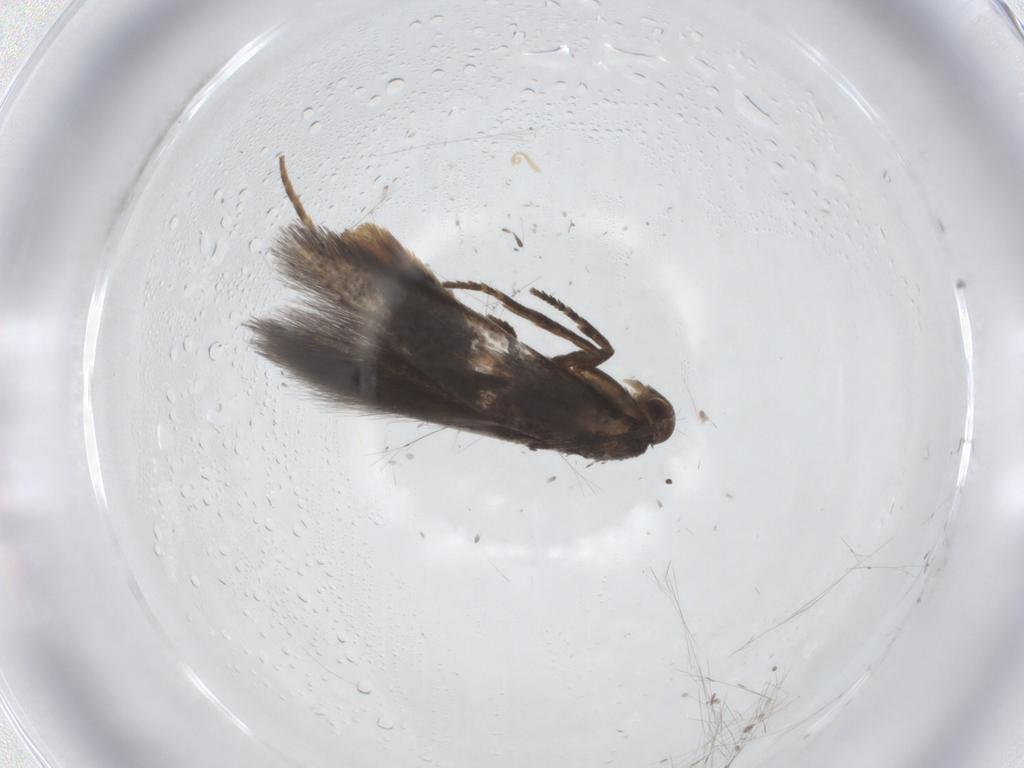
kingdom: Animalia
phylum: Arthropoda
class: Insecta
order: Lepidoptera
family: Elachistidae
